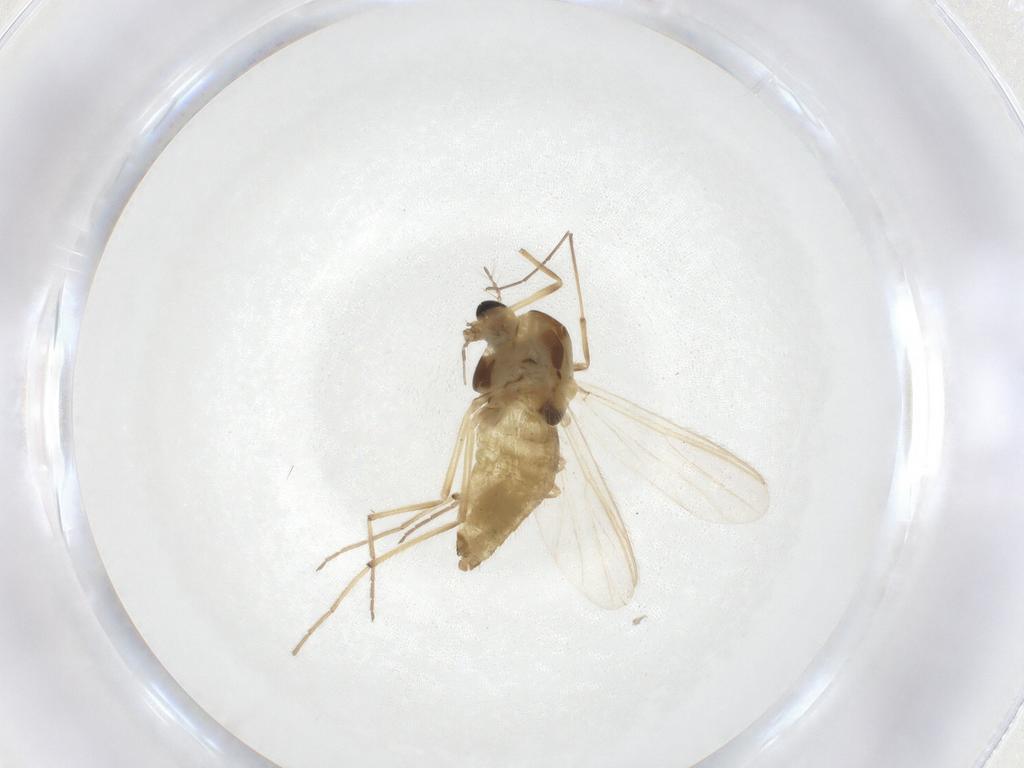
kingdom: Animalia
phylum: Arthropoda
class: Insecta
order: Diptera
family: Chironomidae
